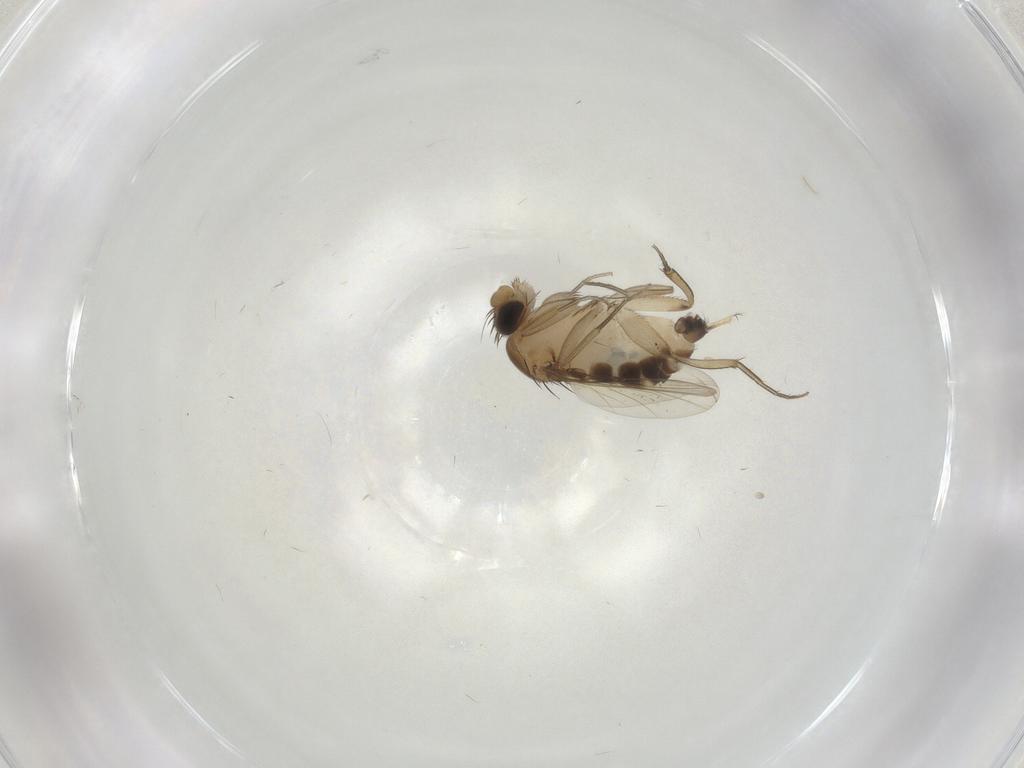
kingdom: Animalia
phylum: Arthropoda
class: Insecta
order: Diptera
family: Phoridae
